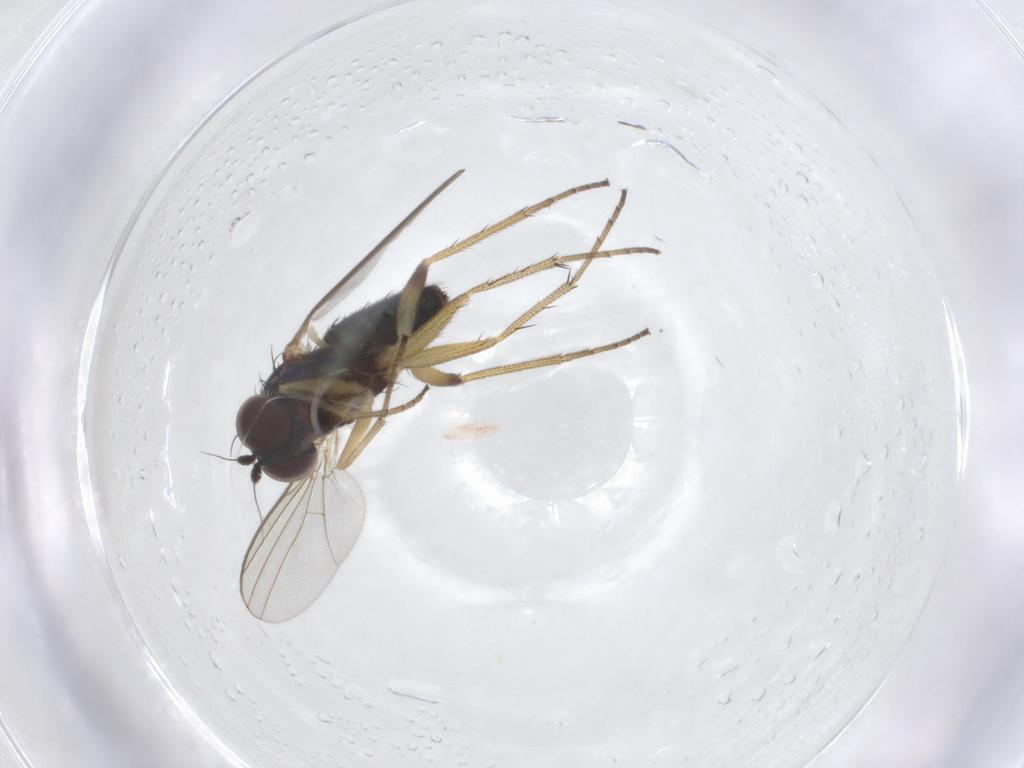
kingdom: Animalia
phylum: Arthropoda
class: Insecta
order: Diptera
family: Dolichopodidae
